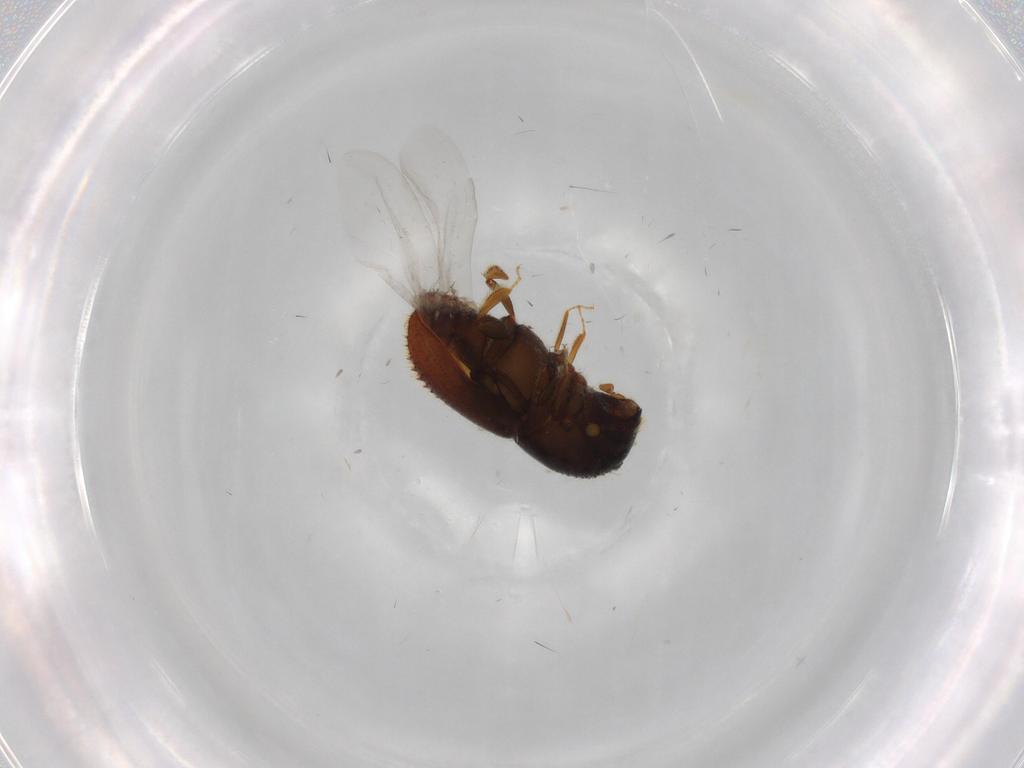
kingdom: Animalia
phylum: Arthropoda
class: Insecta
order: Coleoptera
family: Curculionidae
